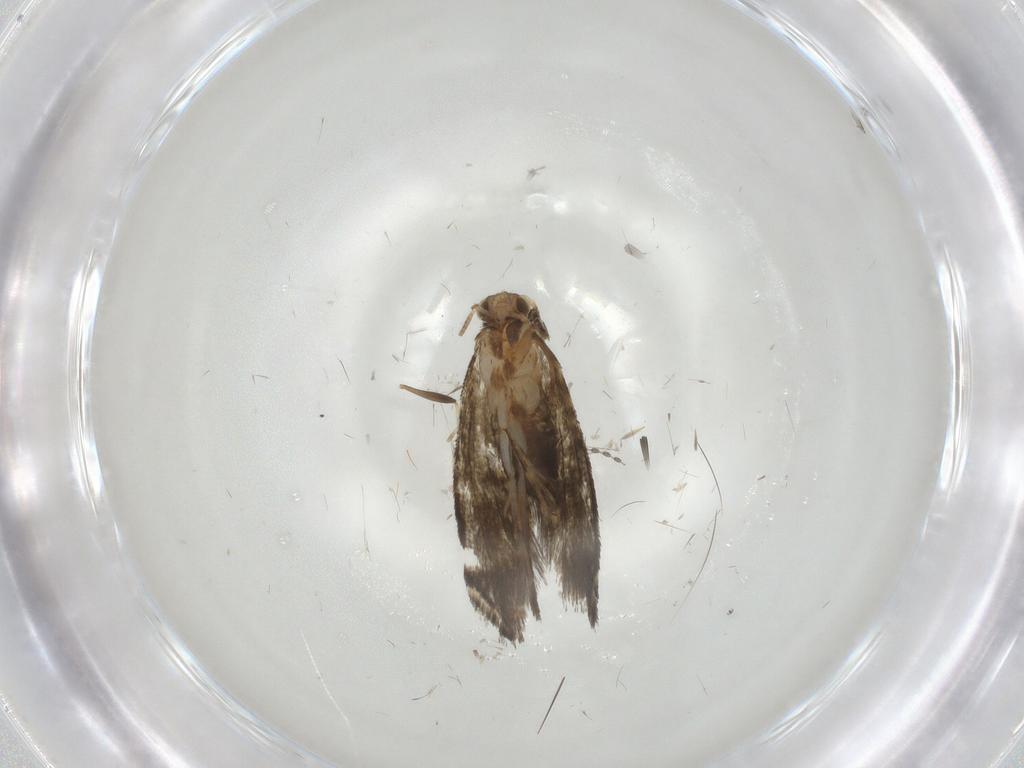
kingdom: Animalia
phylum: Arthropoda
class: Insecta
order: Lepidoptera
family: Tineidae
